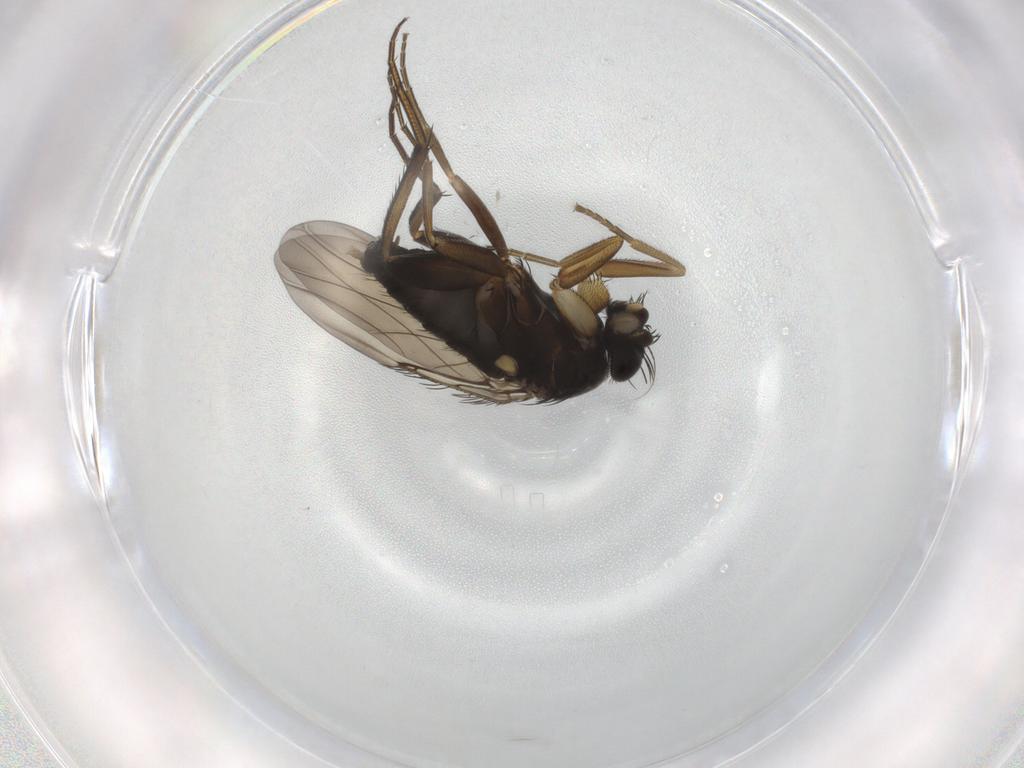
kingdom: Animalia
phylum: Arthropoda
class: Insecta
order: Diptera
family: Phoridae
